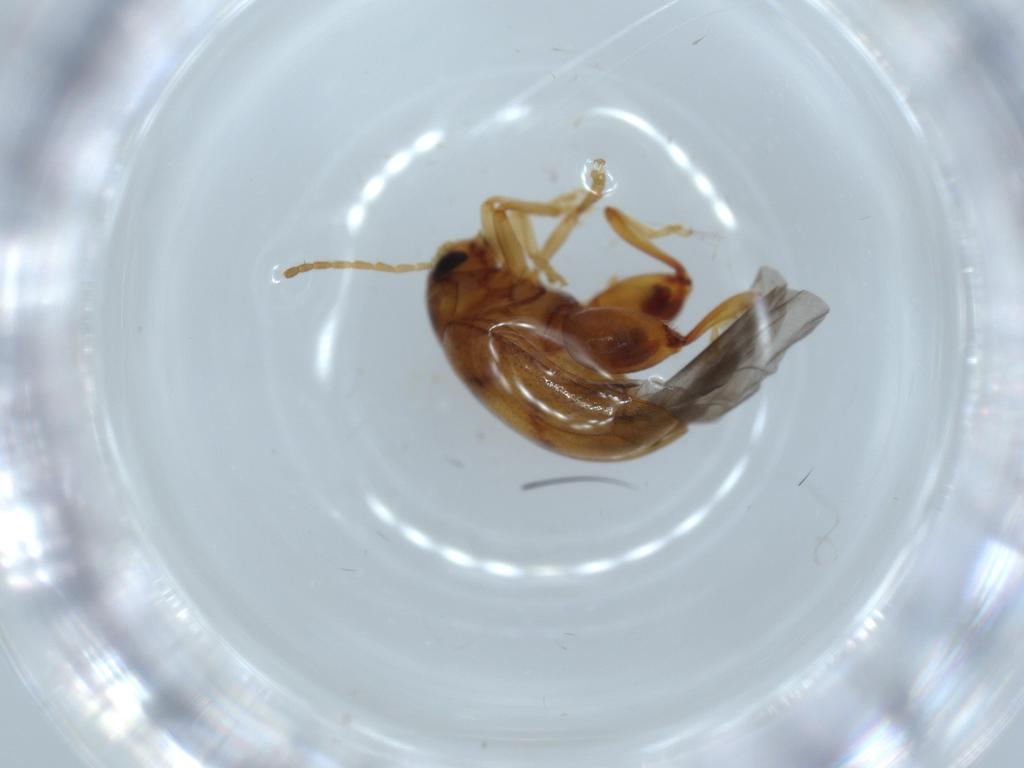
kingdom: Animalia
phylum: Arthropoda
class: Insecta
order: Coleoptera
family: Chrysomelidae
